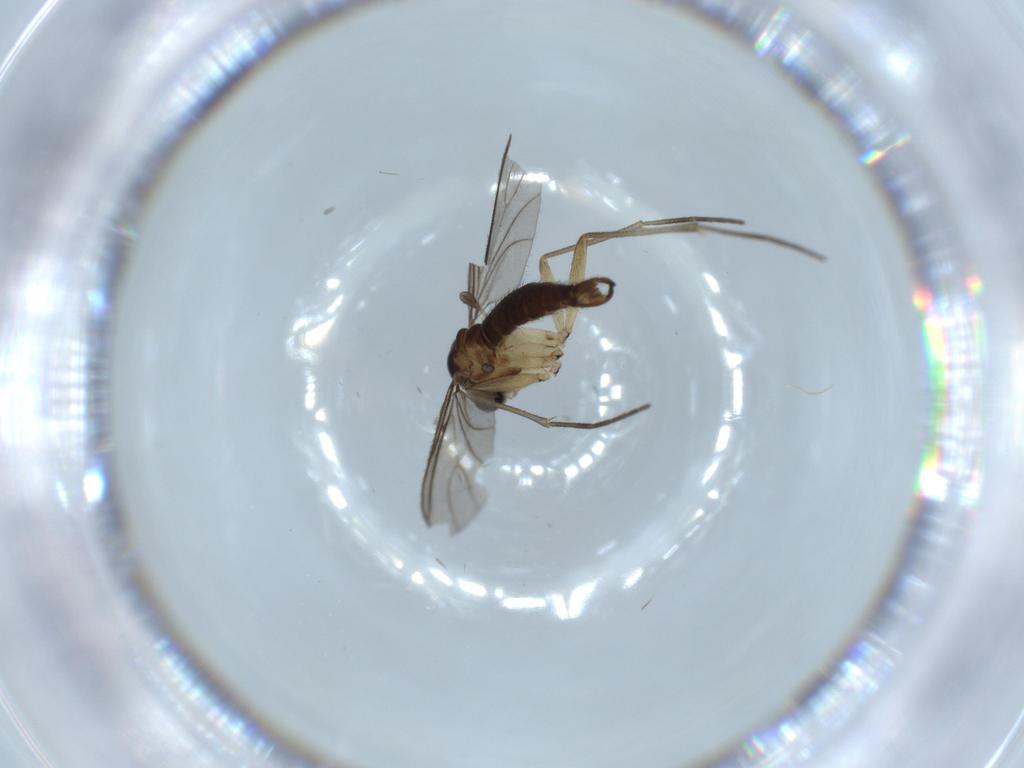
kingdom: Animalia
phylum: Arthropoda
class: Insecta
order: Diptera
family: Sciaridae
